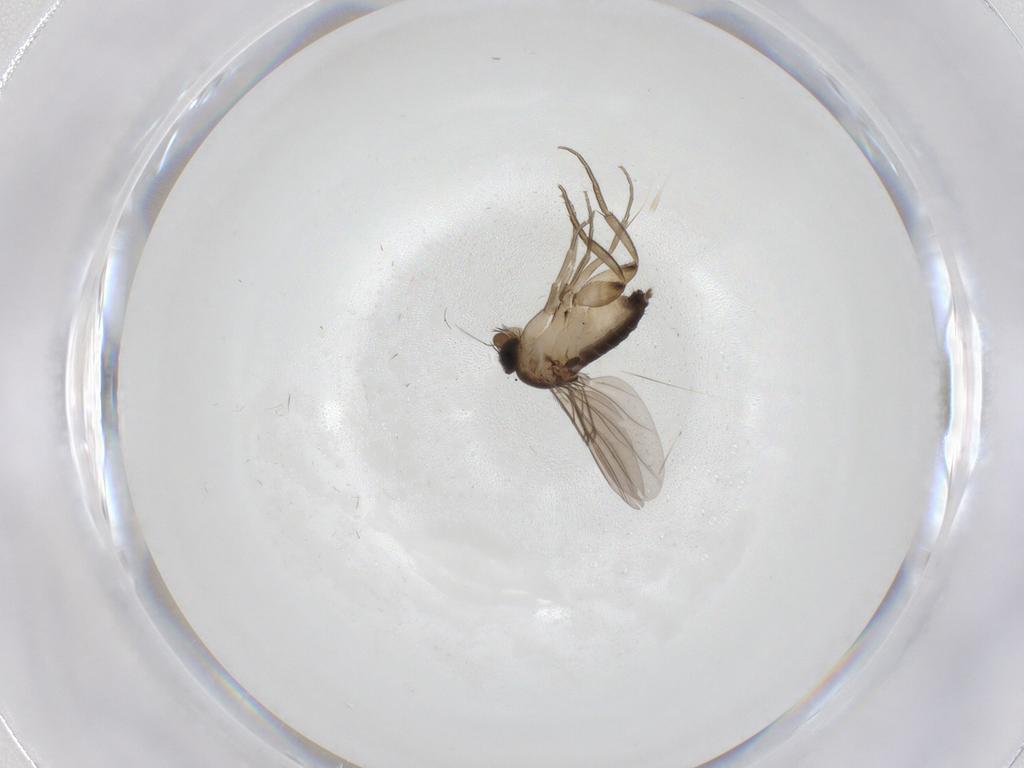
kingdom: Animalia
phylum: Arthropoda
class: Insecta
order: Diptera
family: Phoridae
